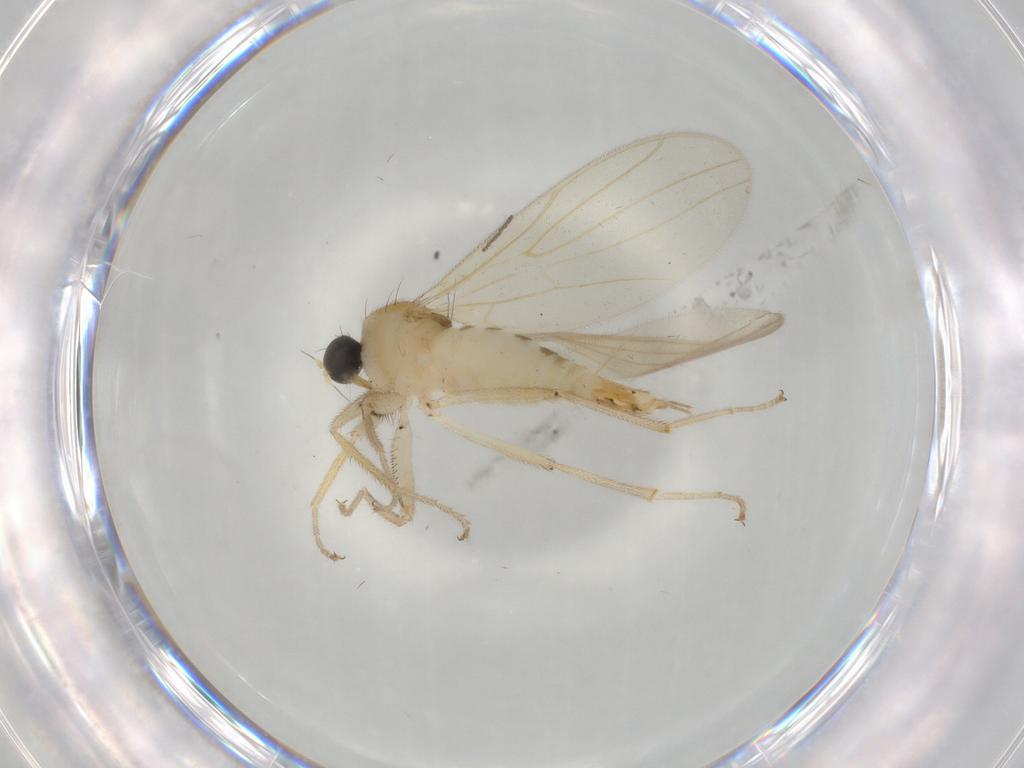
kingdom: Animalia
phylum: Arthropoda
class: Insecta
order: Diptera
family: Hybotidae
